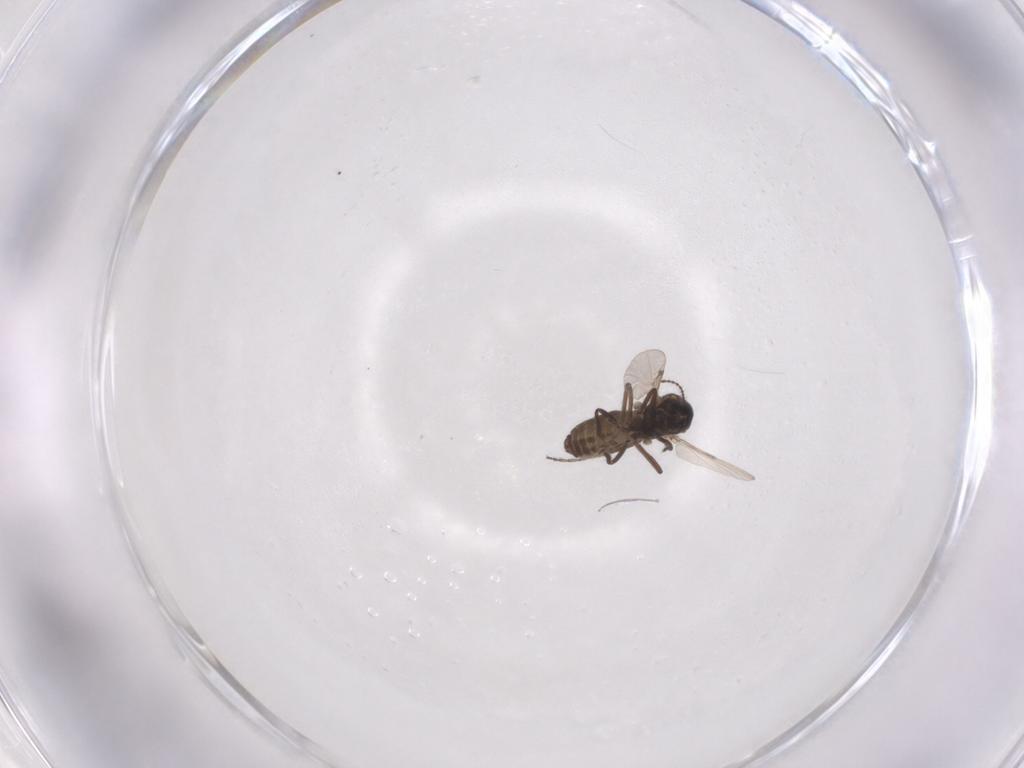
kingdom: Animalia
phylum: Arthropoda
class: Insecta
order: Diptera
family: Ceratopogonidae
